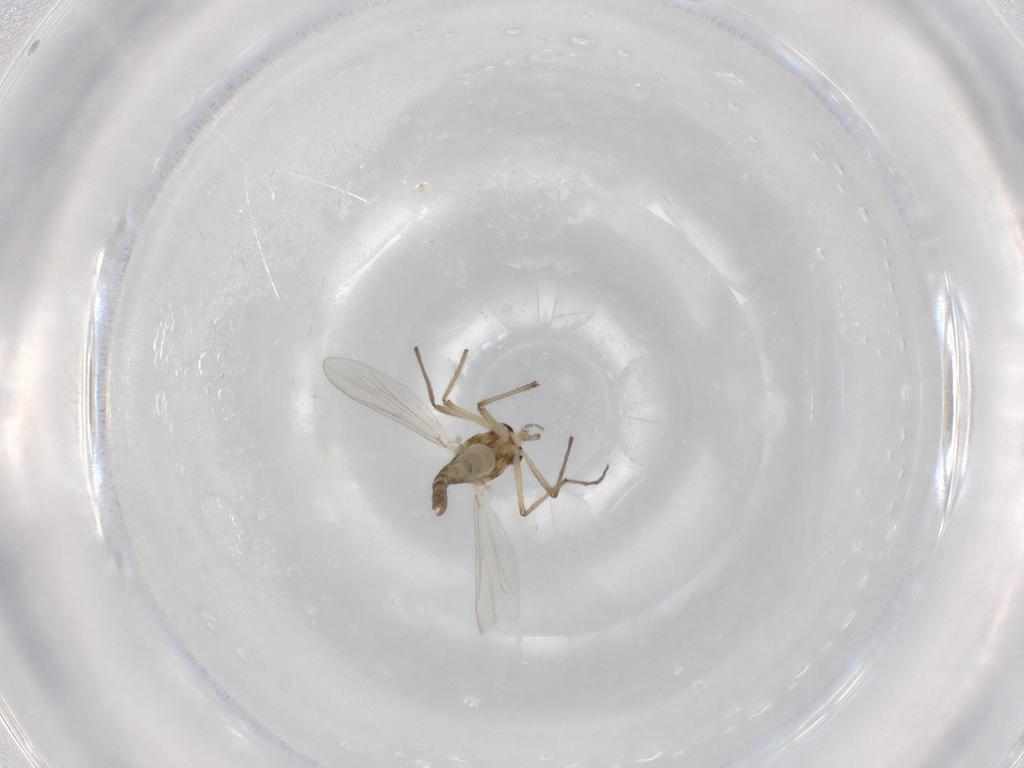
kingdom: Animalia
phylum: Arthropoda
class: Insecta
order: Diptera
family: Chironomidae
